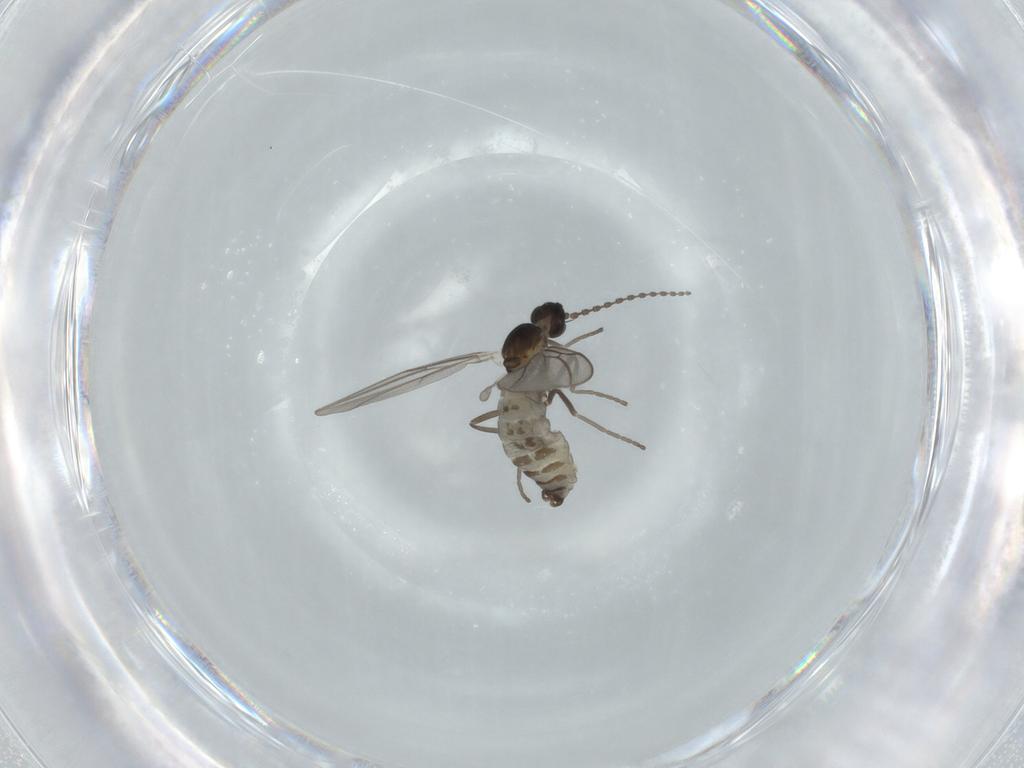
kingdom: Animalia
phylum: Arthropoda
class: Insecta
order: Diptera
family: Cecidomyiidae
